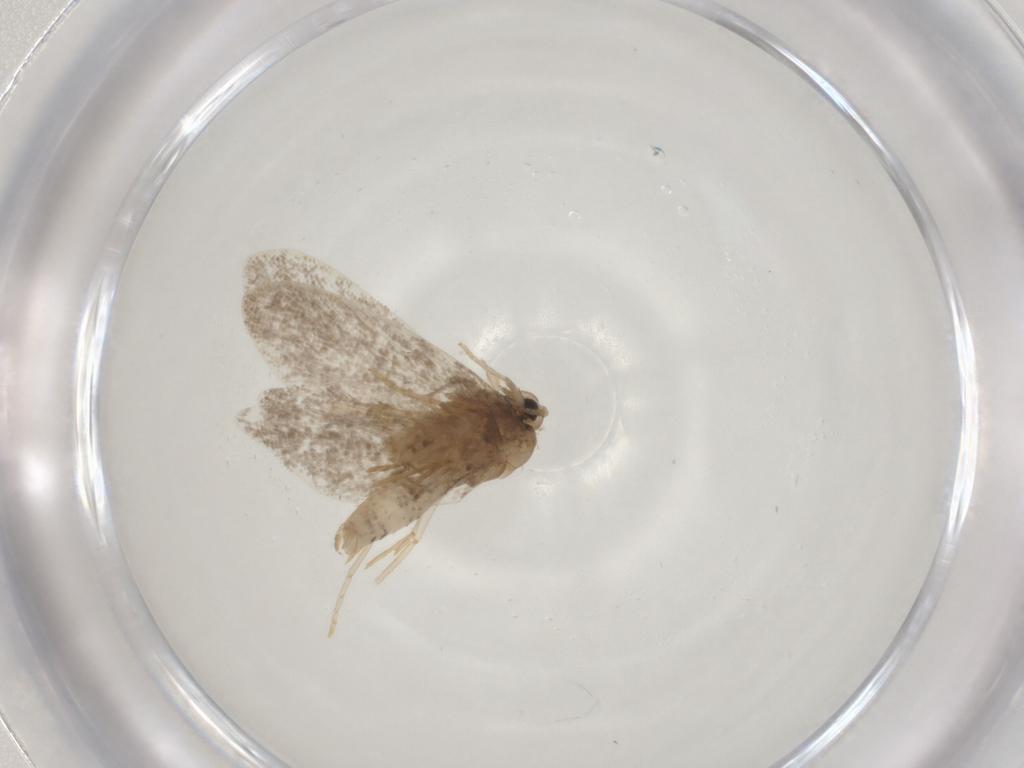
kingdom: Animalia
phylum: Arthropoda
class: Insecta
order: Lepidoptera
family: Psychidae
